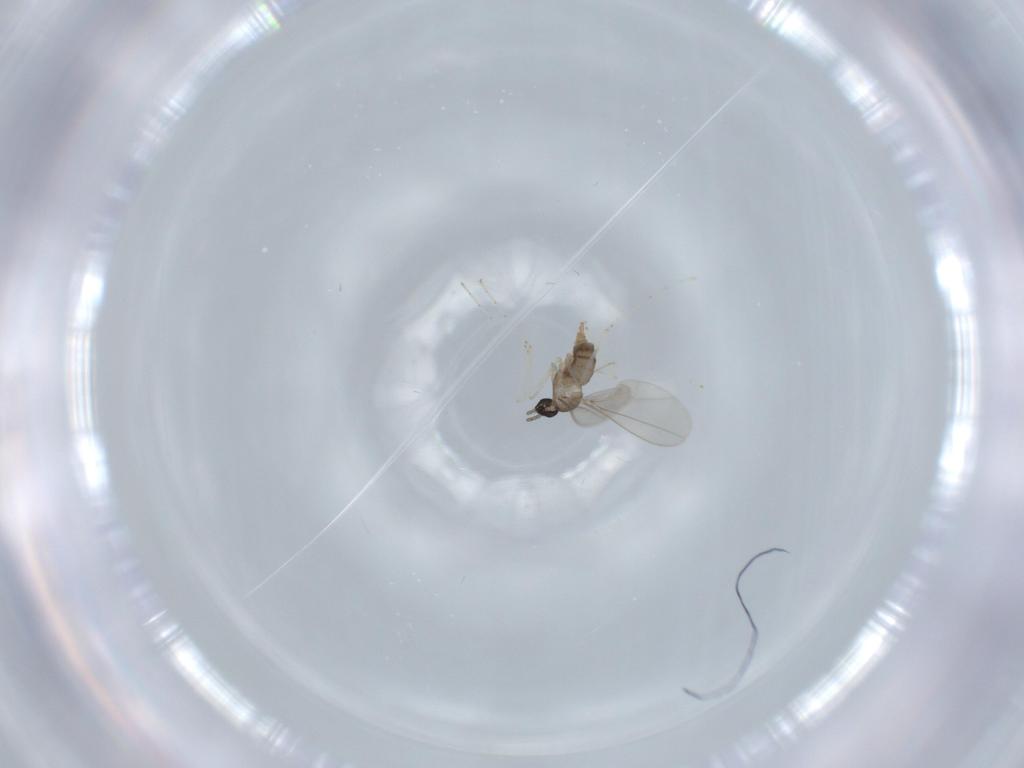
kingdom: Animalia
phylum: Arthropoda
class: Insecta
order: Diptera
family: Cecidomyiidae
